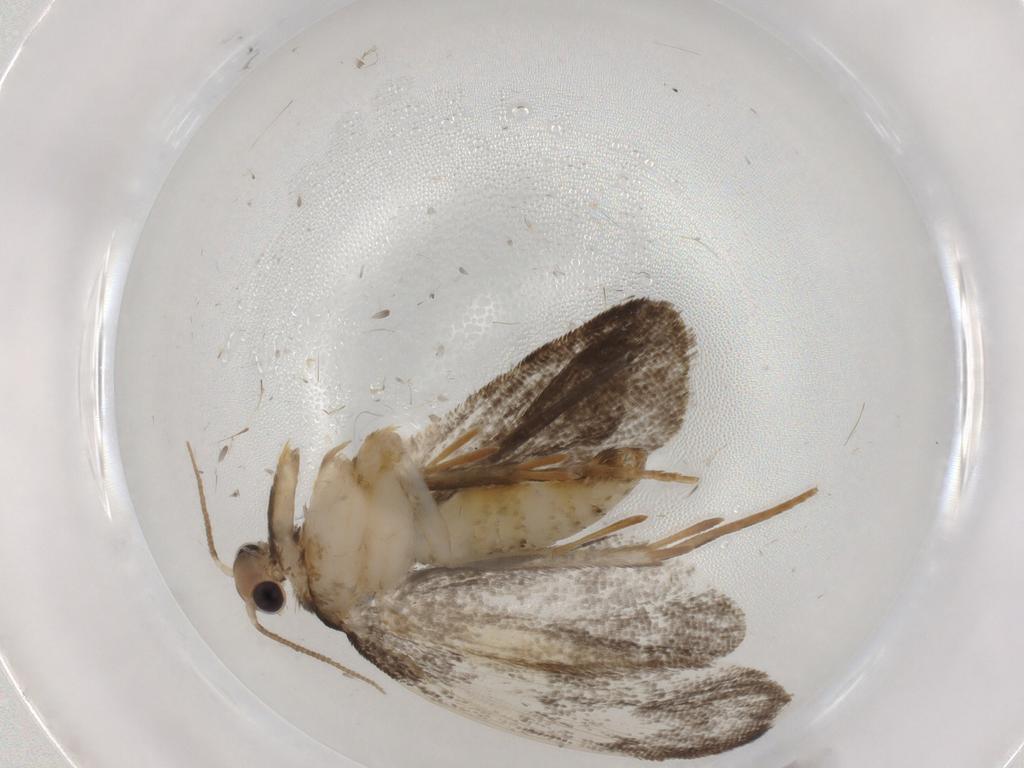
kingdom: Animalia
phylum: Arthropoda
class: Insecta
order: Lepidoptera
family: Psychidae
